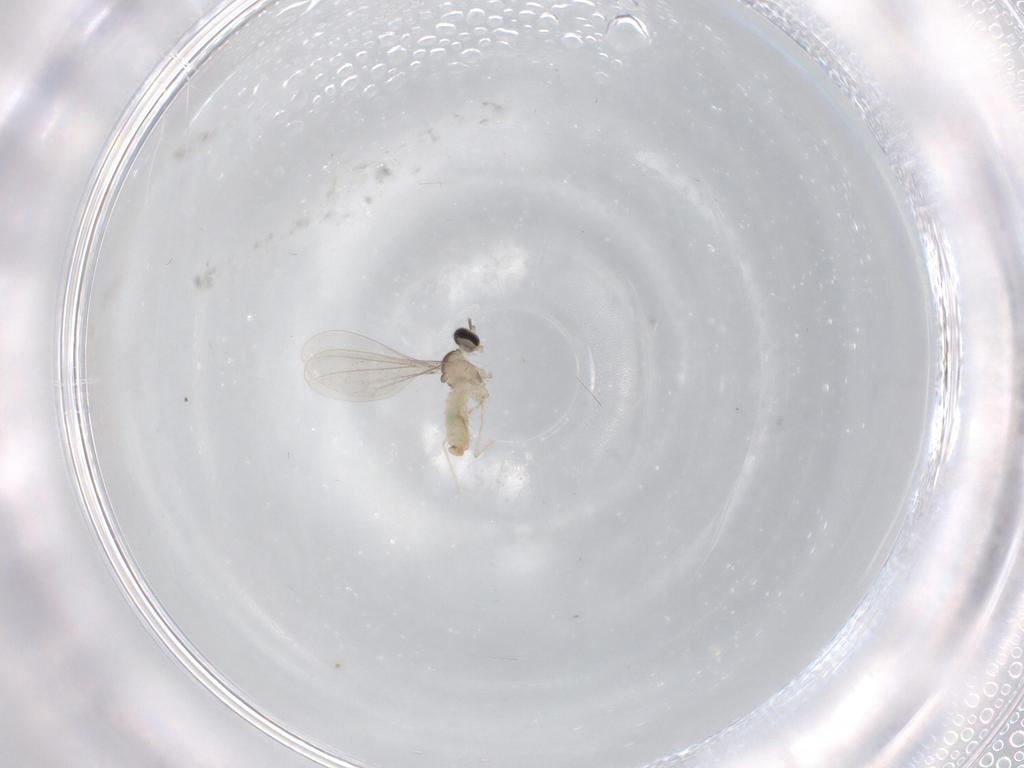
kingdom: Animalia
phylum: Arthropoda
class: Insecta
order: Diptera
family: Cecidomyiidae
